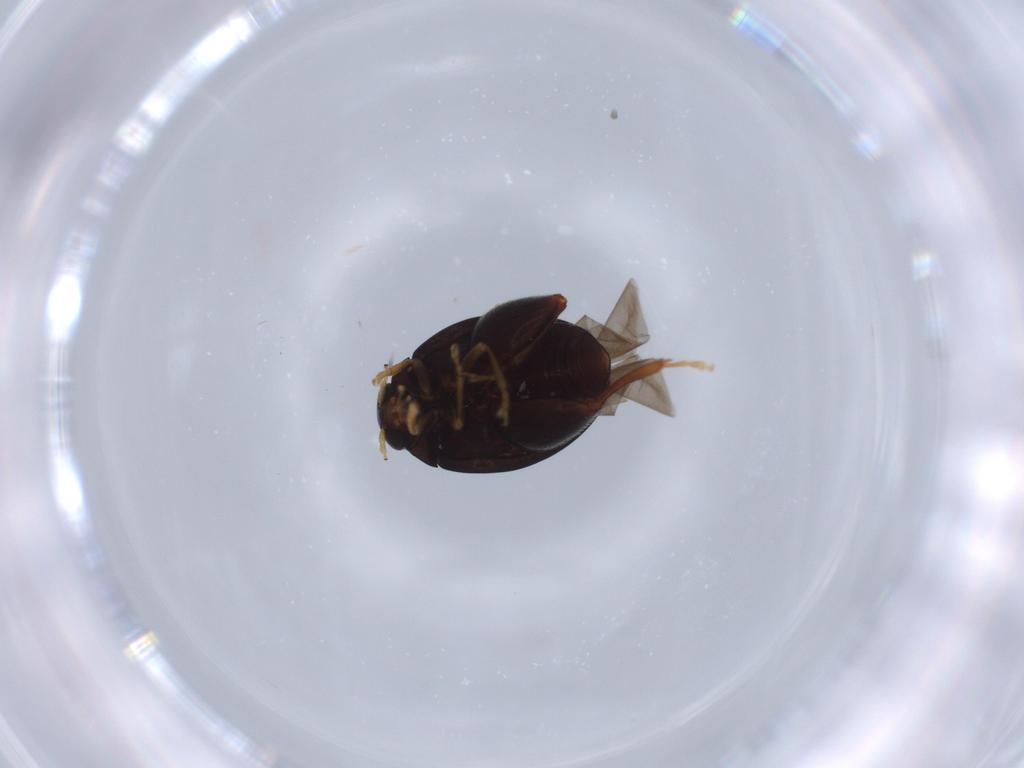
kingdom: Animalia
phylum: Arthropoda
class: Insecta
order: Coleoptera
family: Chrysomelidae
